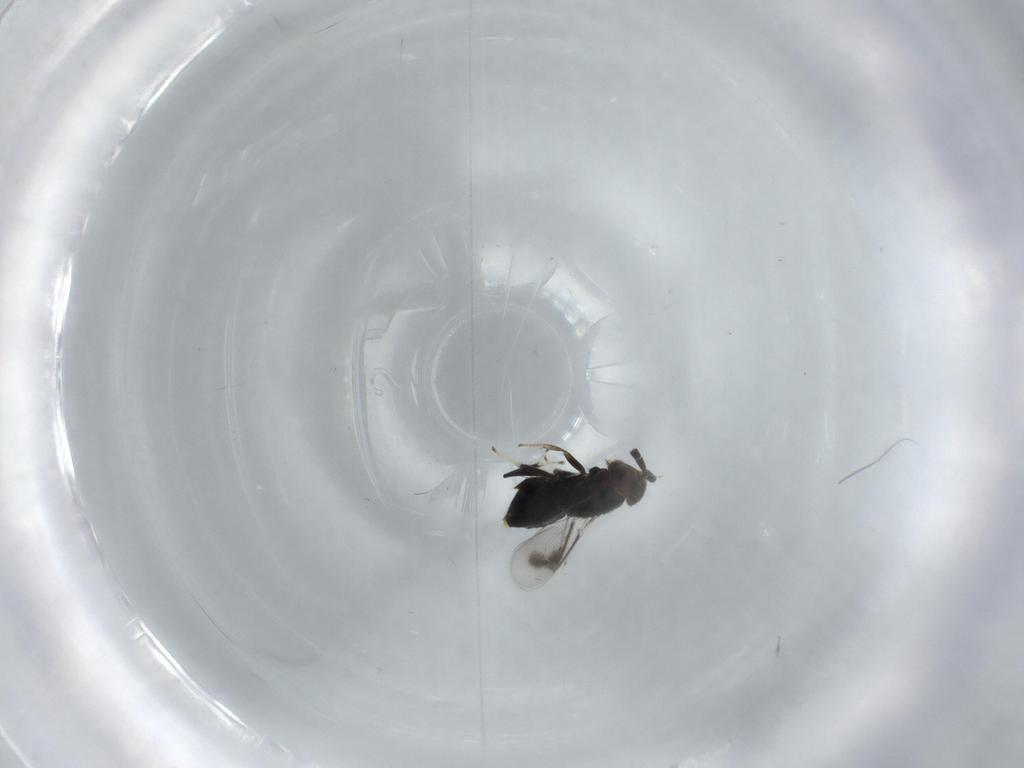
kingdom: Animalia
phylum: Arthropoda
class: Insecta
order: Hymenoptera
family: Aphelinidae
